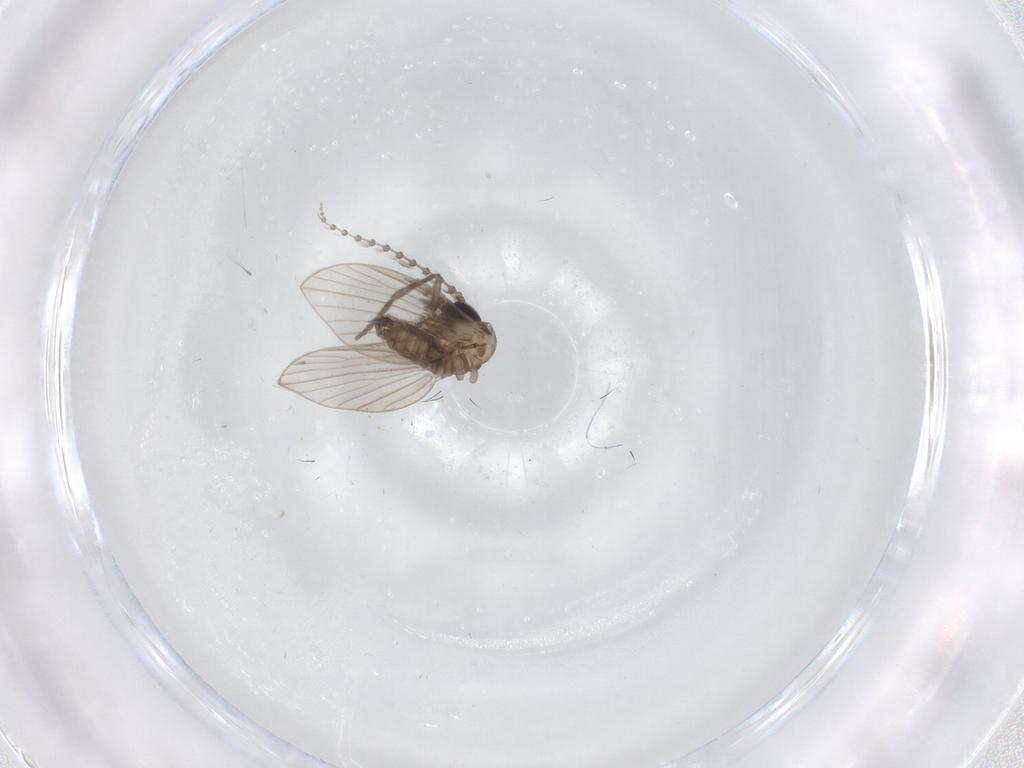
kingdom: Animalia
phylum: Arthropoda
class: Insecta
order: Diptera
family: Psychodidae
